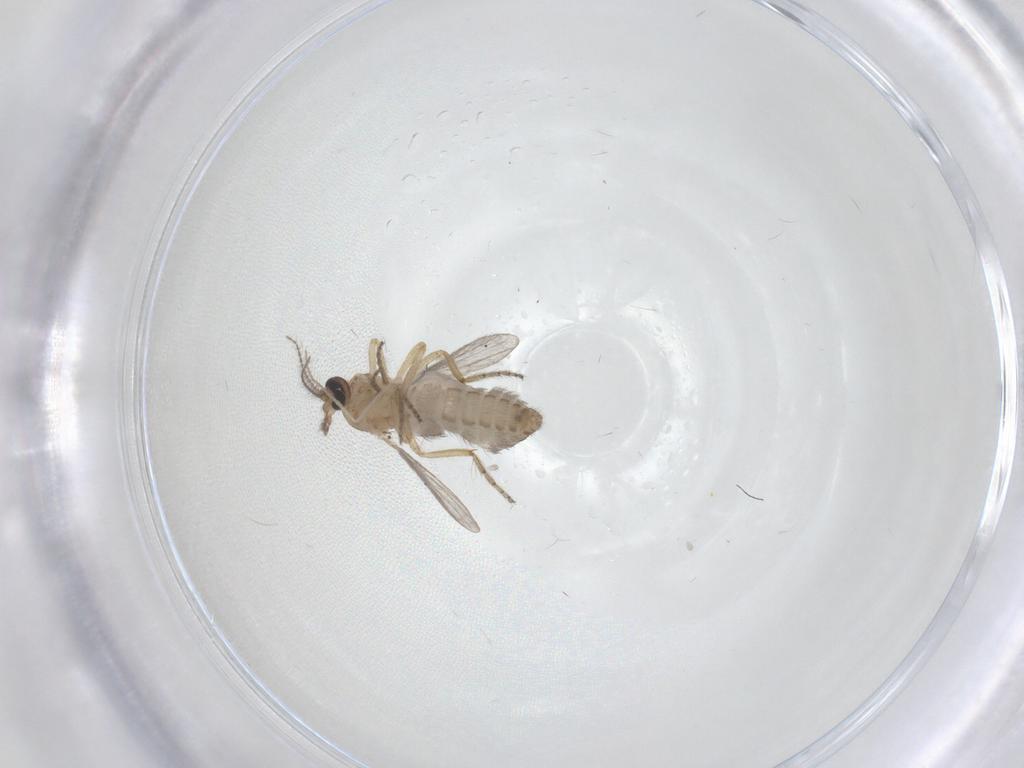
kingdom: Animalia
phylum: Arthropoda
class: Insecta
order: Diptera
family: Ceratopogonidae
